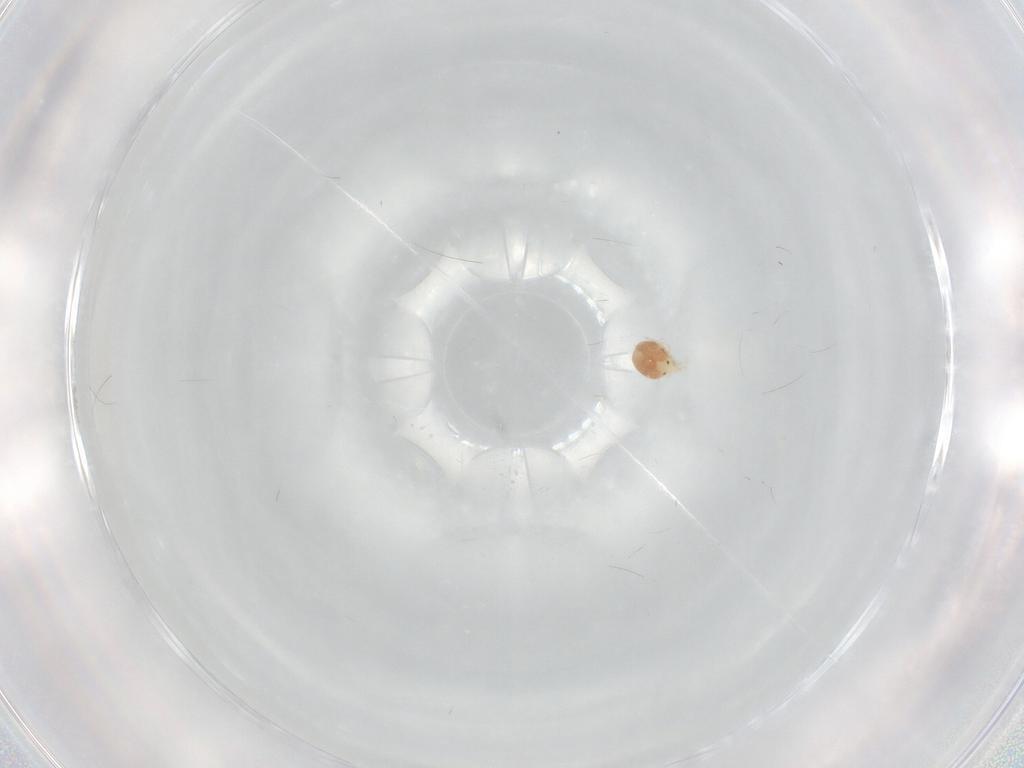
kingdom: Animalia
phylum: Arthropoda
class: Arachnida
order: Trombidiformes
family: Hygrobatidae
